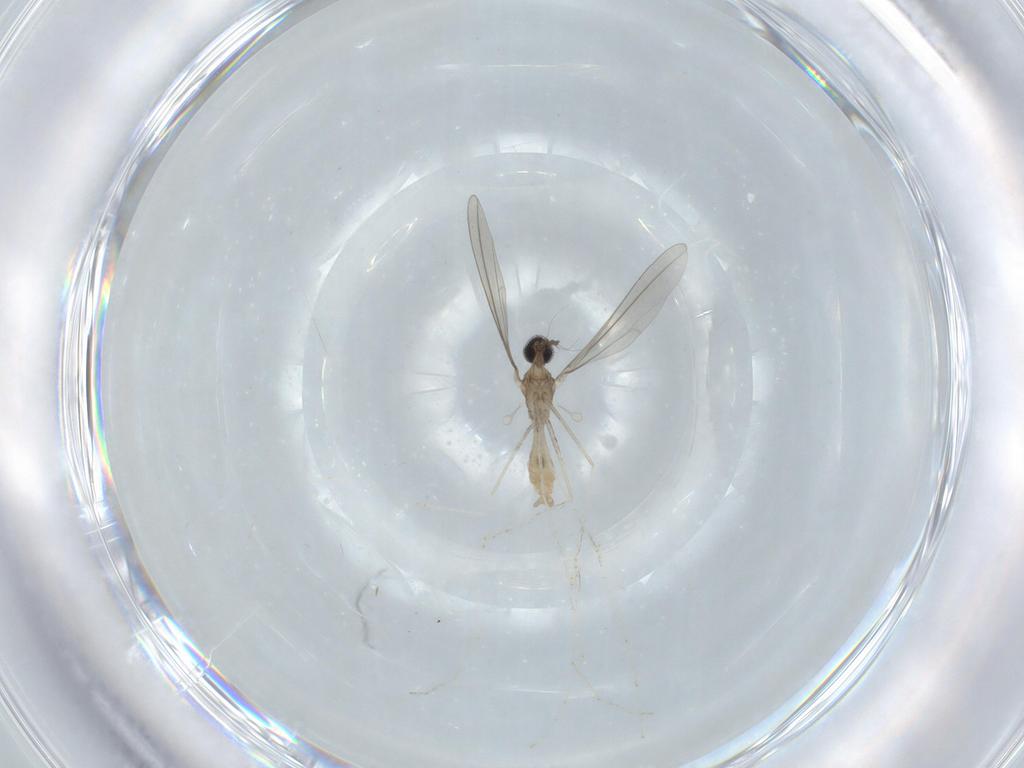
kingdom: Animalia
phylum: Arthropoda
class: Insecta
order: Diptera
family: Cecidomyiidae
